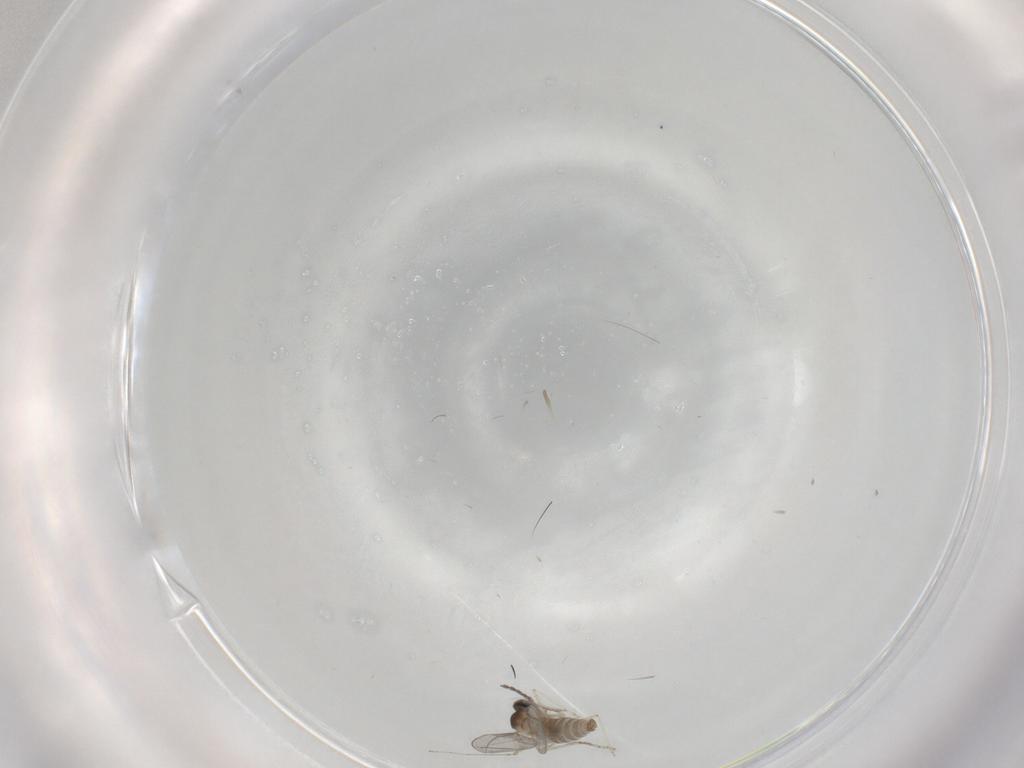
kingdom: Animalia
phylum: Arthropoda
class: Insecta
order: Diptera
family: Cecidomyiidae
